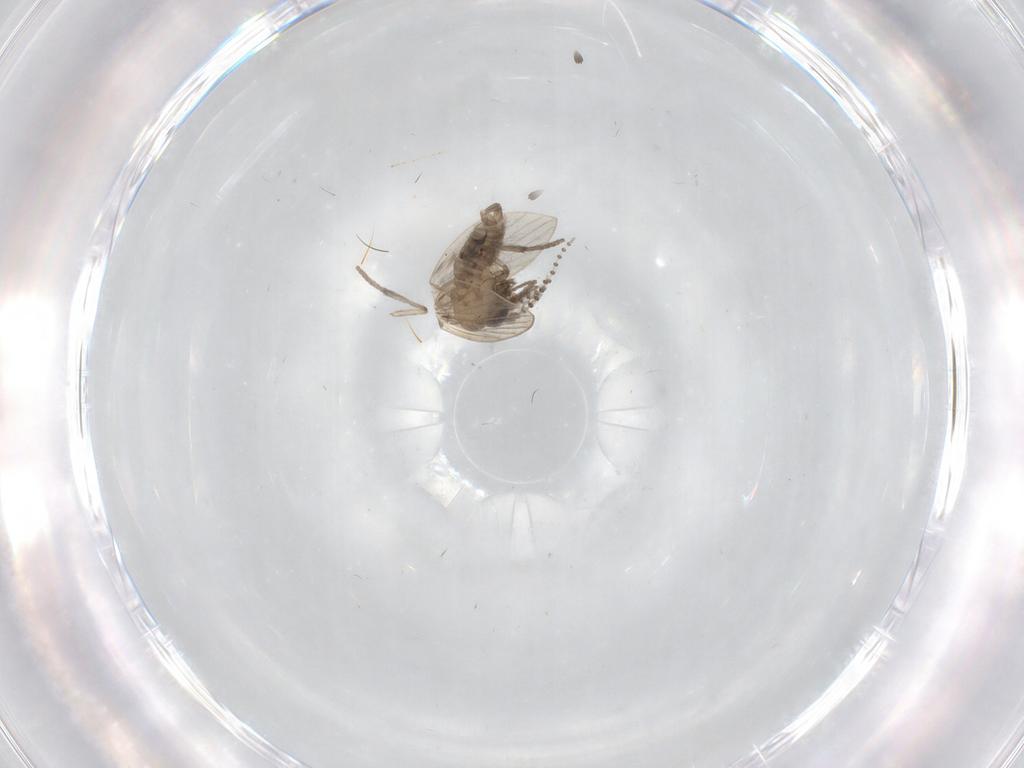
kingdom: Animalia
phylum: Arthropoda
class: Insecta
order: Diptera
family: Psychodidae
